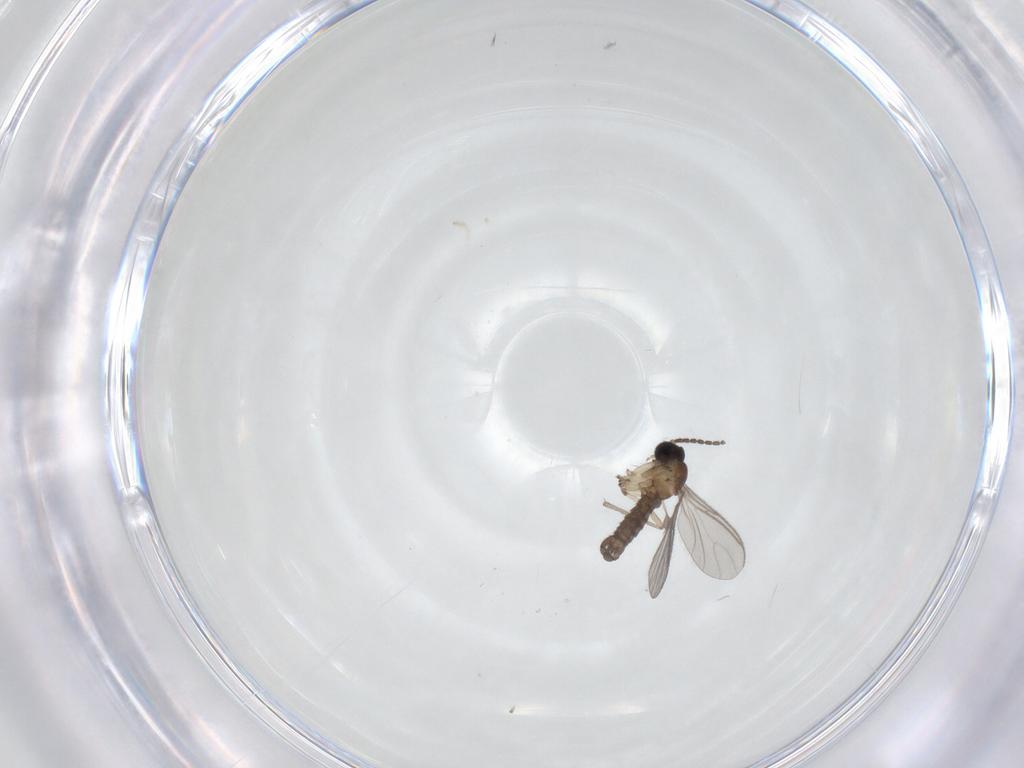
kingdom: Animalia
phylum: Arthropoda
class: Insecta
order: Diptera
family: Sciaridae
